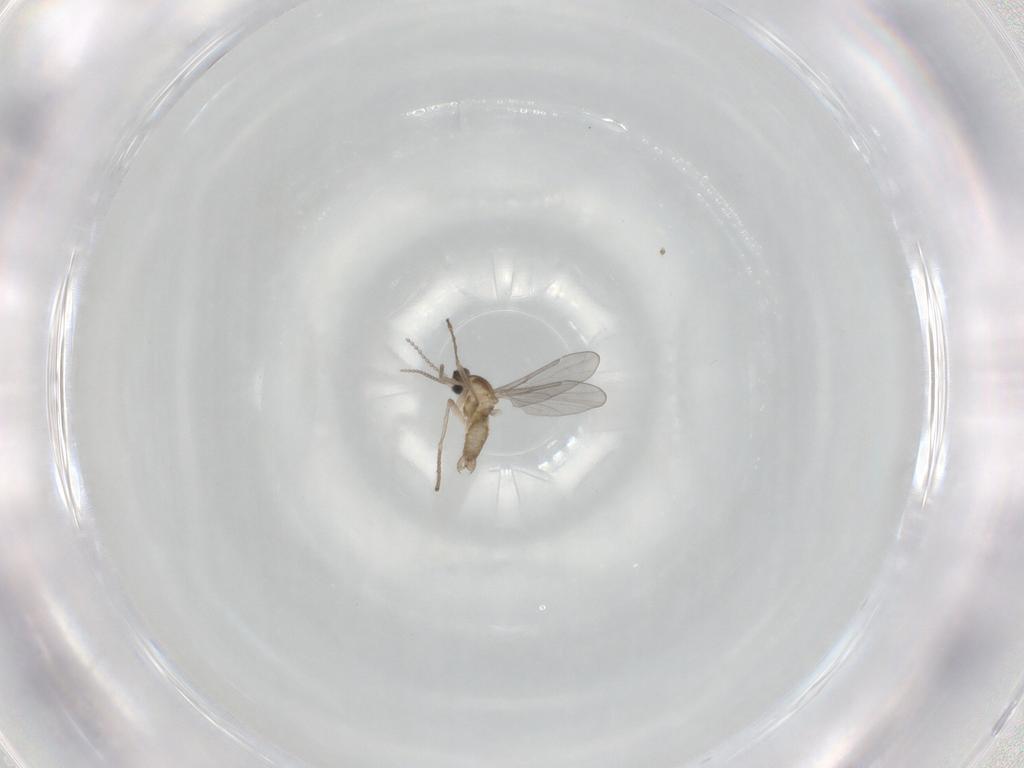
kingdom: Animalia
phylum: Arthropoda
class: Insecta
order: Diptera
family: Cecidomyiidae
